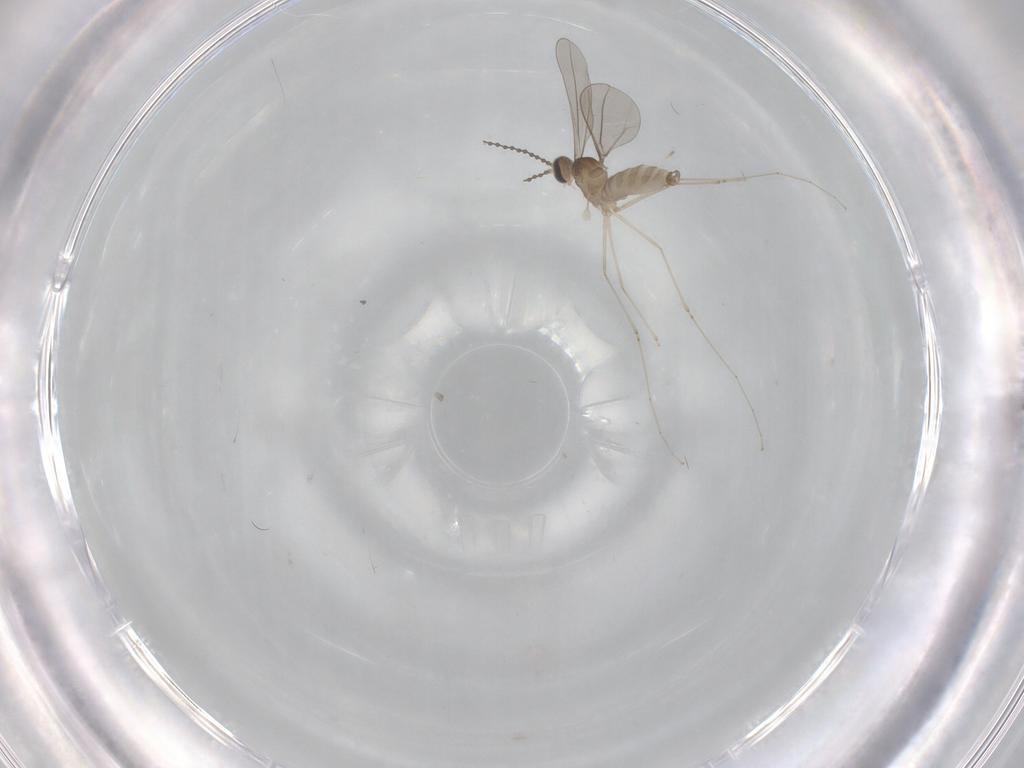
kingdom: Animalia
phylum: Arthropoda
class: Insecta
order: Diptera
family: Cecidomyiidae
